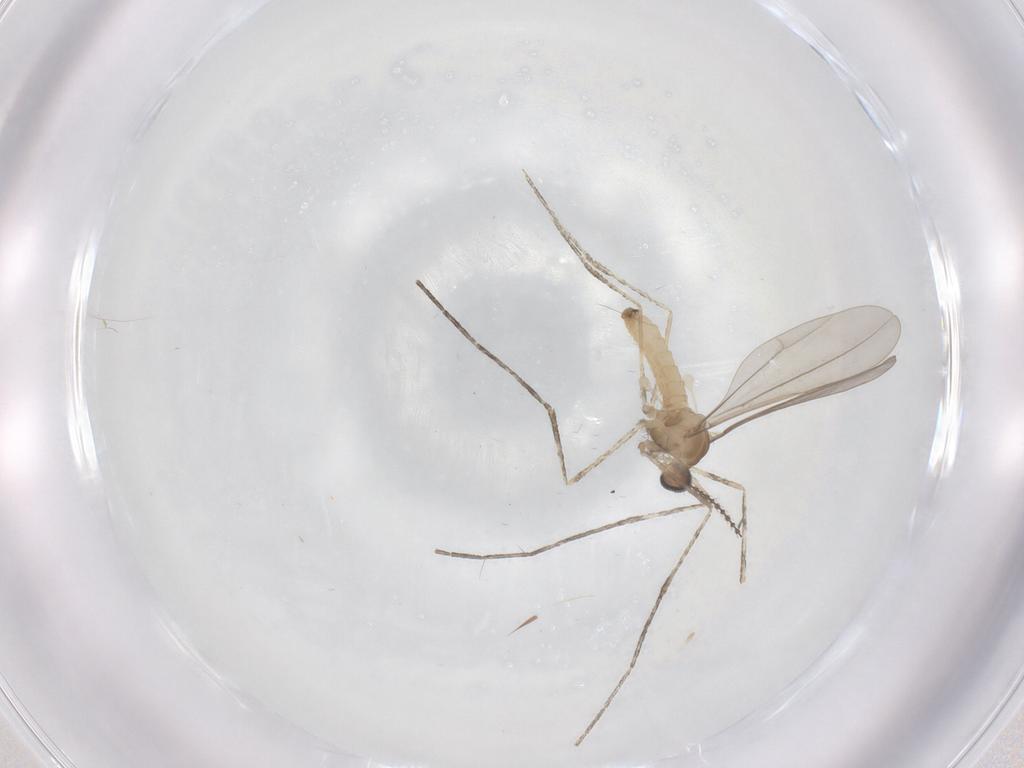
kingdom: Animalia
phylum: Arthropoda
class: Insecta
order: Diptera
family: Cecidomyiidae
